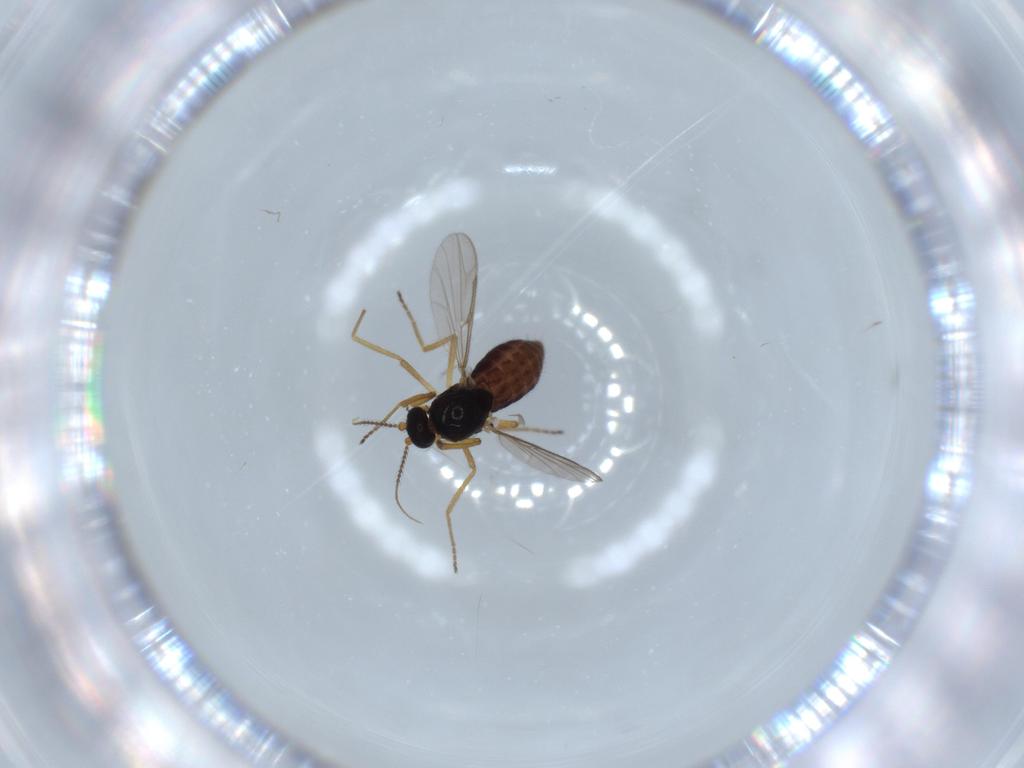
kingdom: Animalia
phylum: Arthropoda
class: Insecta
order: Diptera
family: Ceratopogonidae
